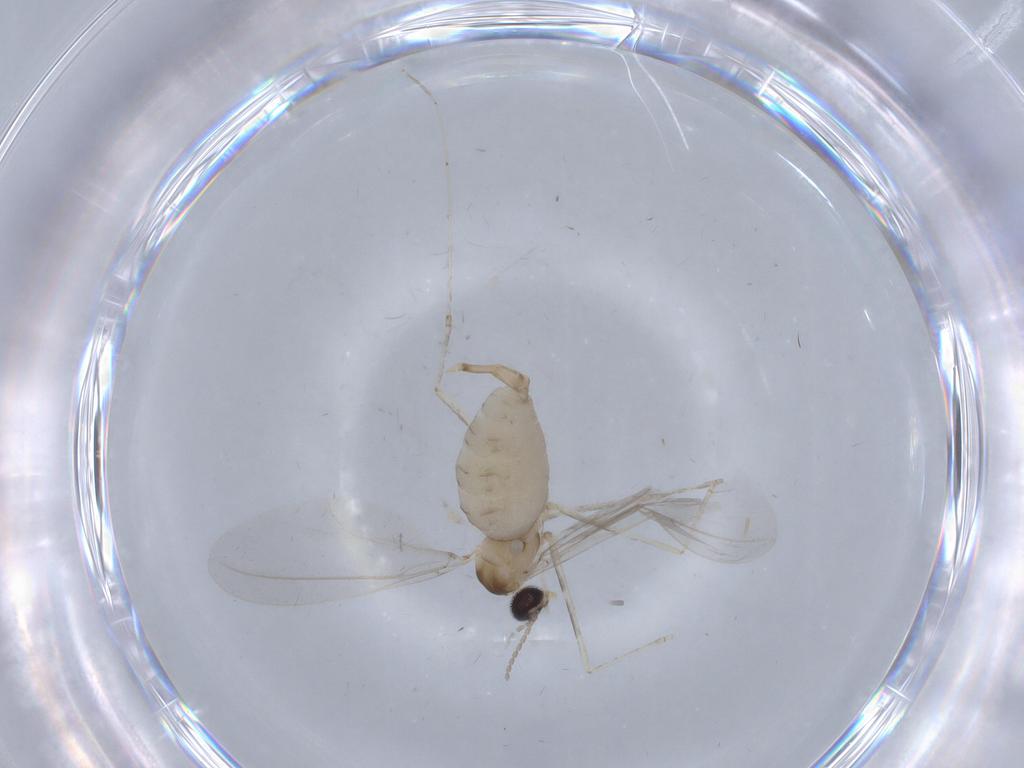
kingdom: Animalia
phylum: Arthropoda
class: Insecta
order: Diptera
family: Cecidomyiidae
